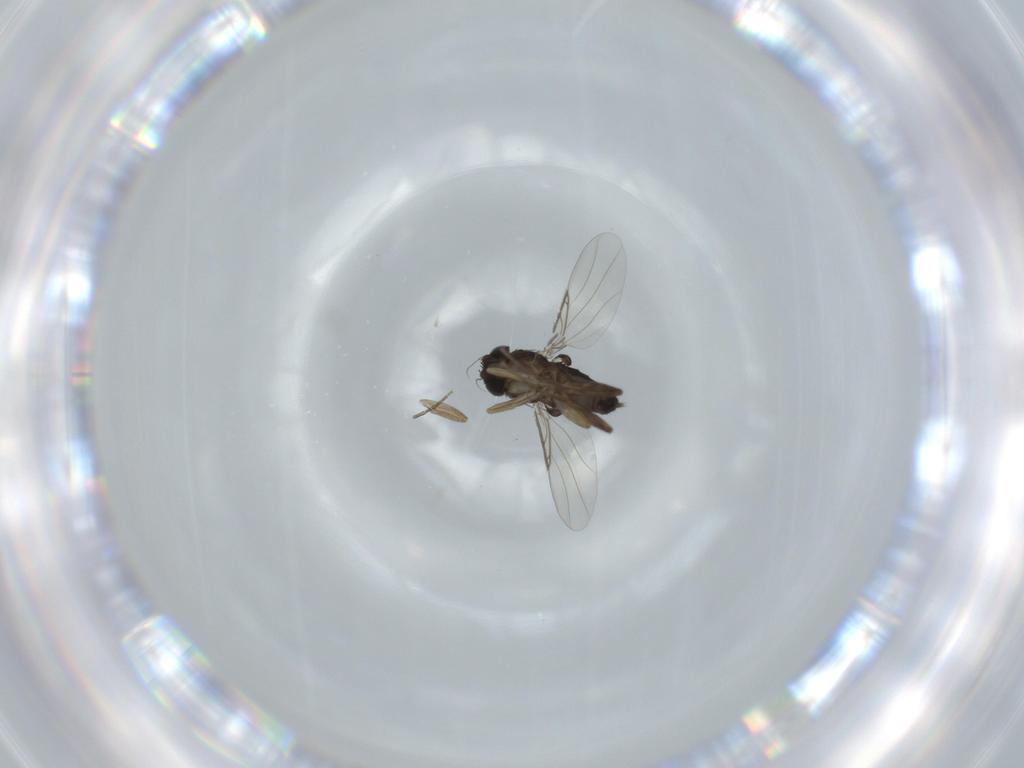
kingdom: Animalia
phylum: Arthropoda
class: Insecta
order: Diptera
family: Phoridae
